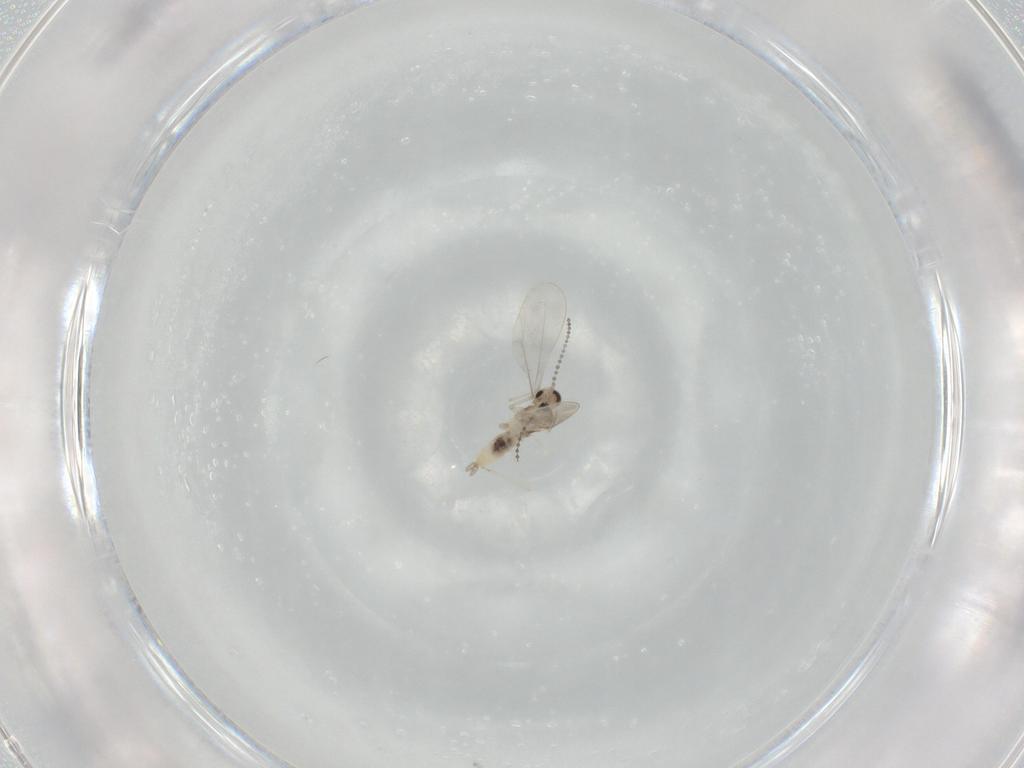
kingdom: Animalia
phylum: Arthropoda
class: Insecta
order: Diptera
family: Cecidomyiidae
